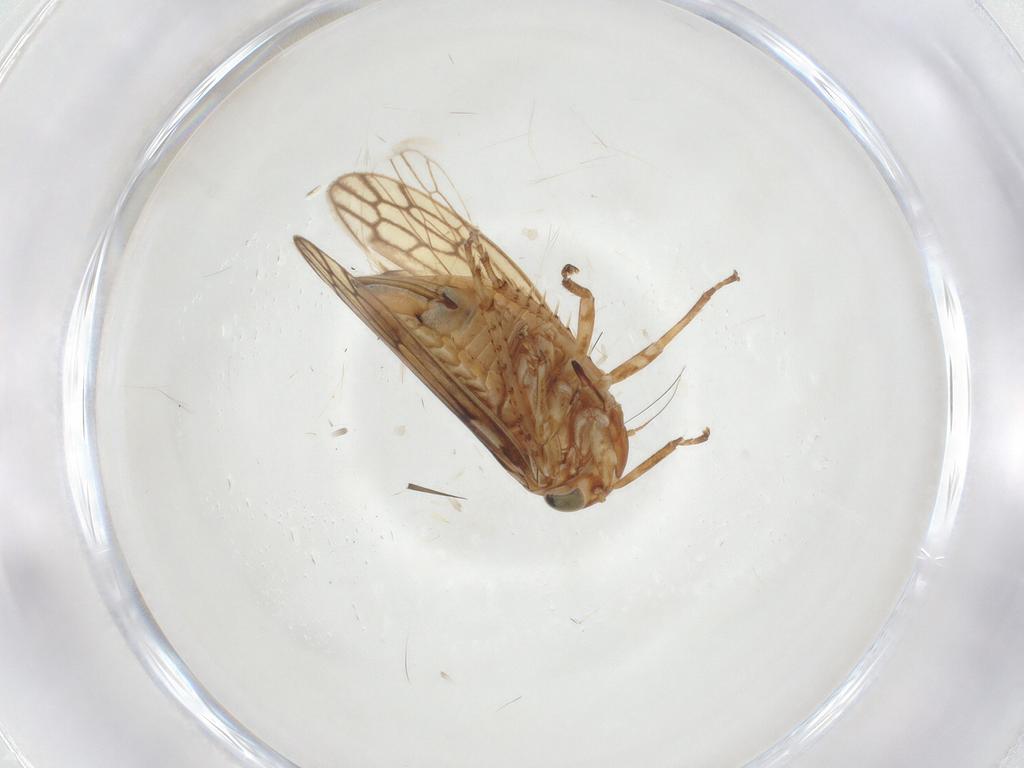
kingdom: Animalia
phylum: Arthropoda
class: Insecta
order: Hemiptera
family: Cicadellidae
